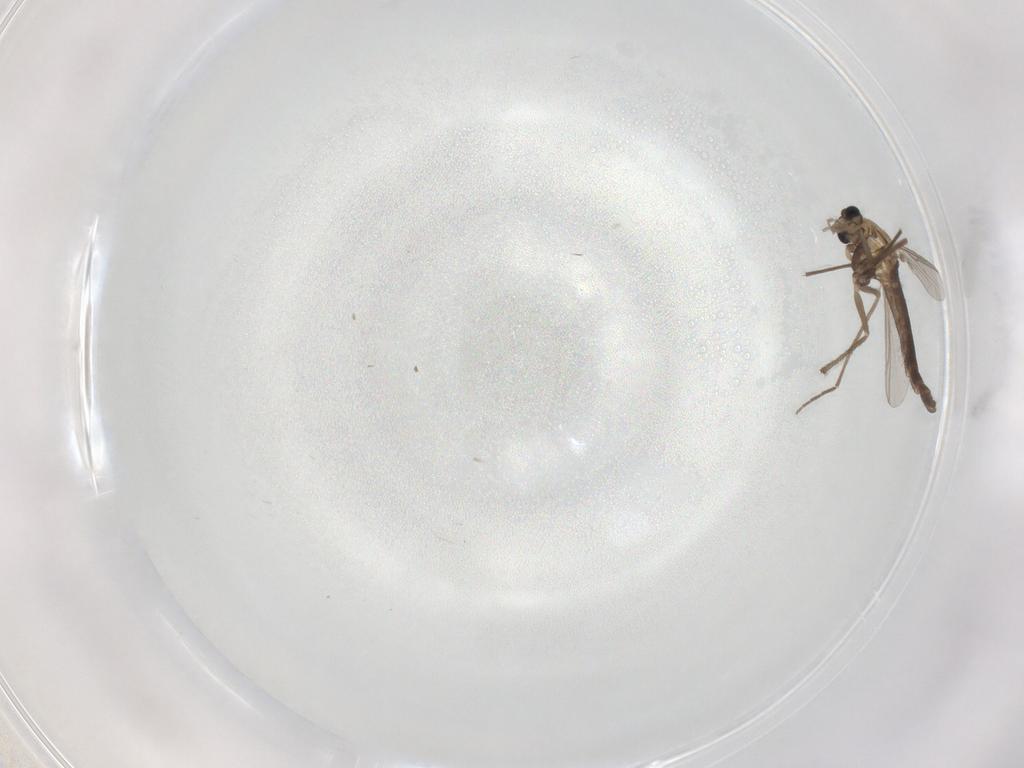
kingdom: Animalia
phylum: Arthropoda
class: Insecta
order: Diptera
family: Chironomidae
